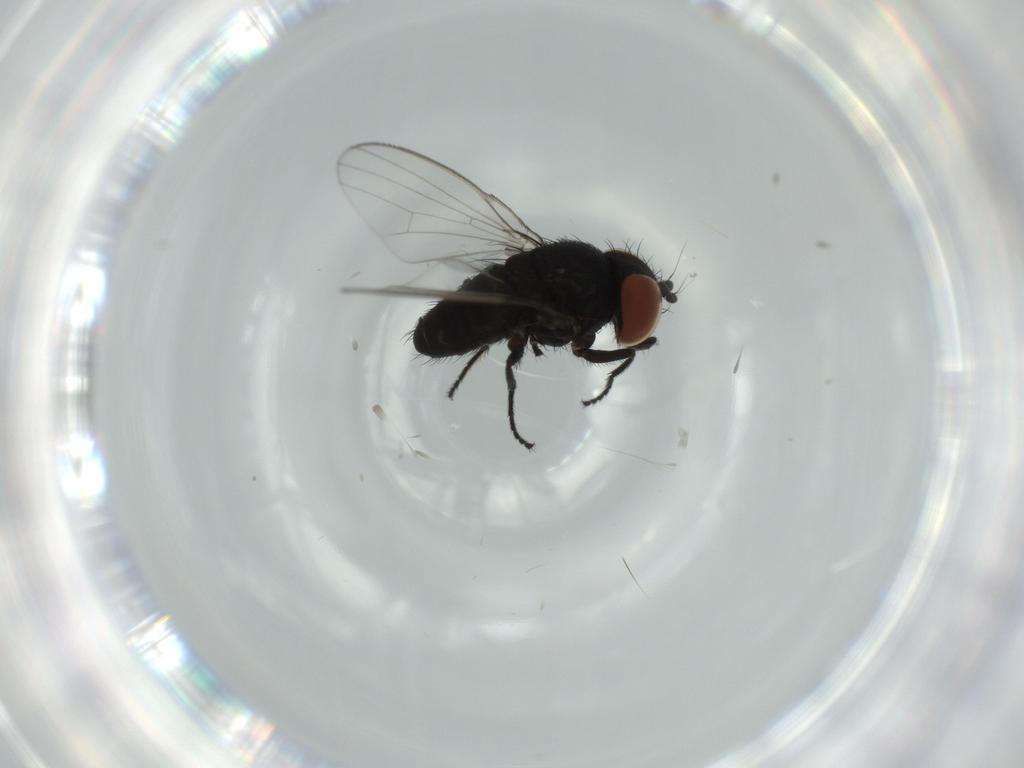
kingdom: Animalia
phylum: Arthropoda
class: Insecta
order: Diptera
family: Milichiidae
